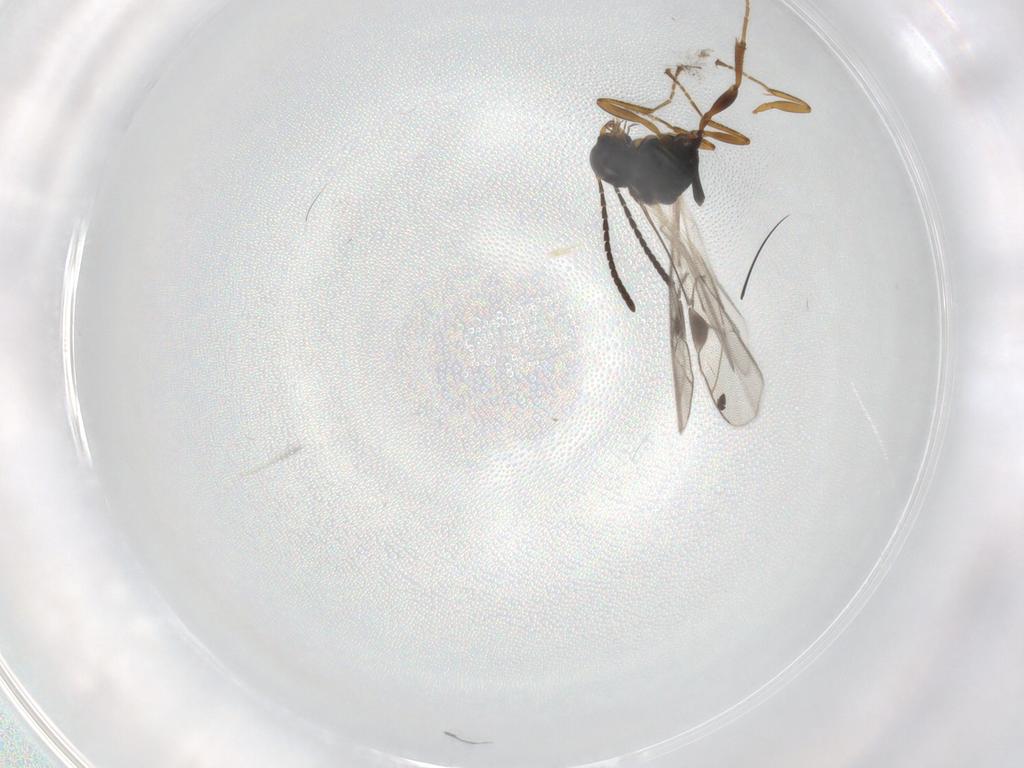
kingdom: Animalia
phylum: Arthropoda
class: Insecta
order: Hymenoptera
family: Ichneumonidae
